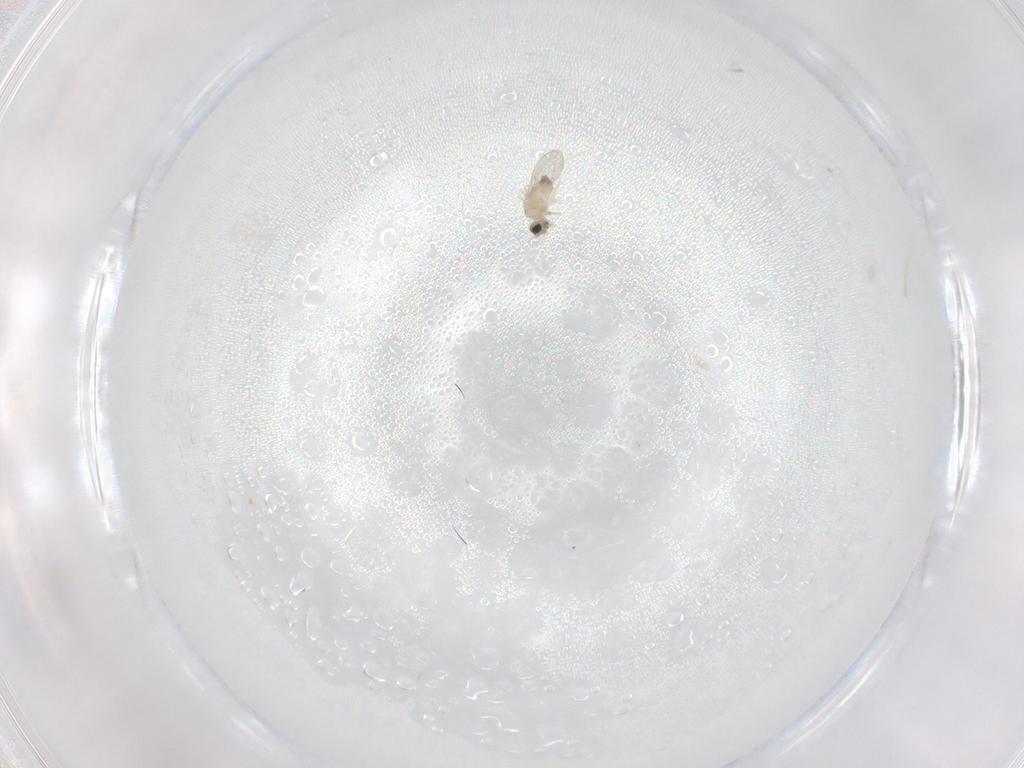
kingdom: Animalia
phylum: Arthropoda
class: Insecta
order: Diptera
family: Cecidomyiidae
